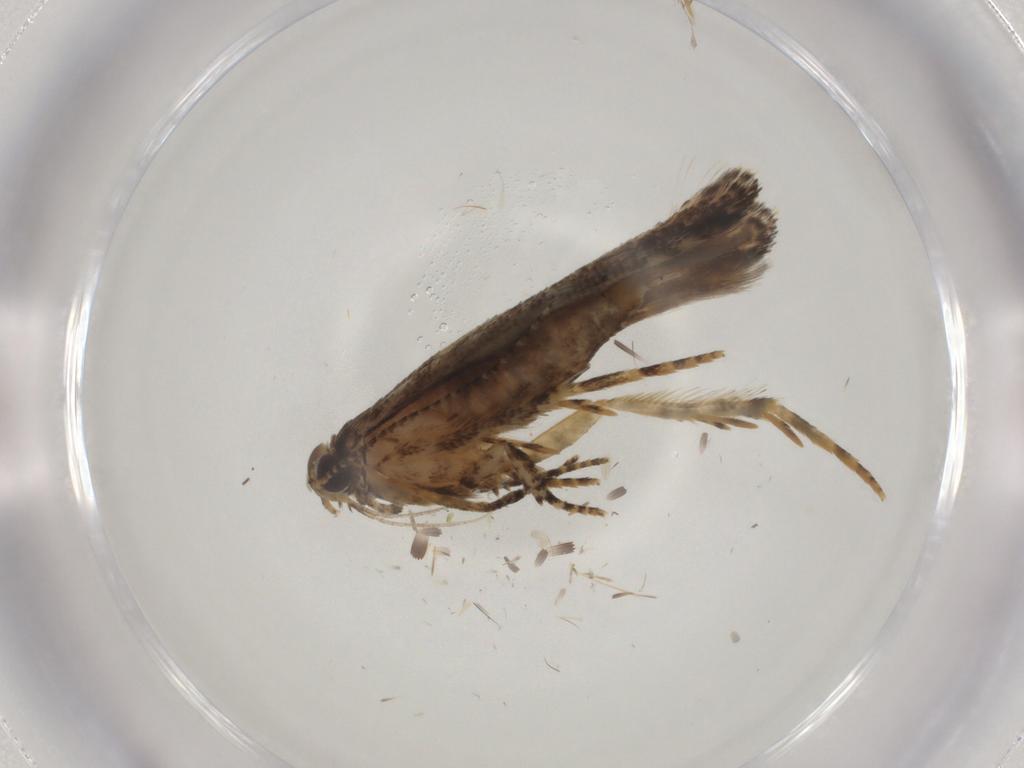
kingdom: Animalia
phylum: Arthropoda
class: Insecta
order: Lepidoptera
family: Gelechiidae
